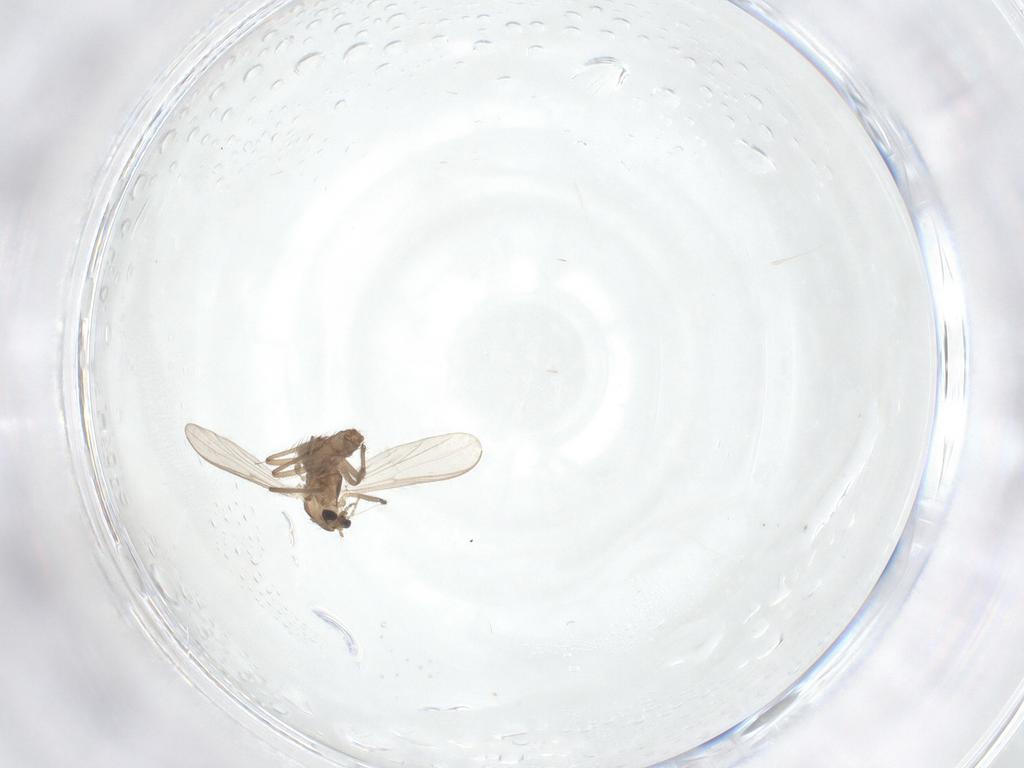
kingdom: Animalia
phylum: Arthropoda
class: Insecta
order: Diptera
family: Chironomidae
